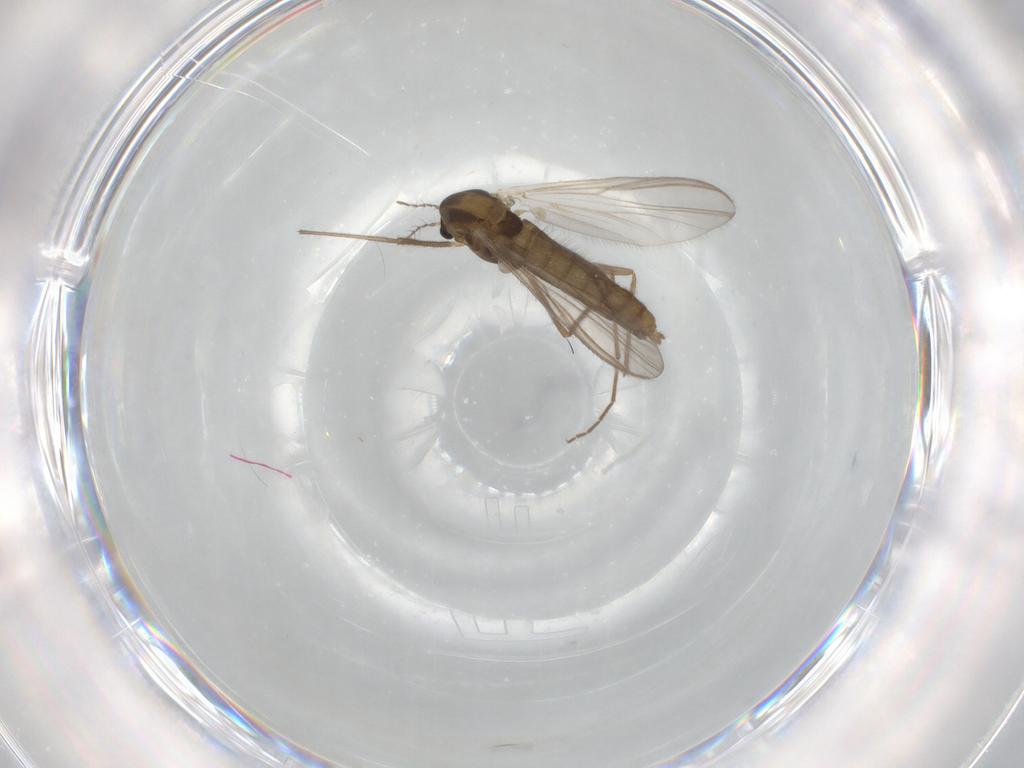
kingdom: Animalia
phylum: Arthropoda
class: Insecta
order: Diptera
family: Chironomidae
